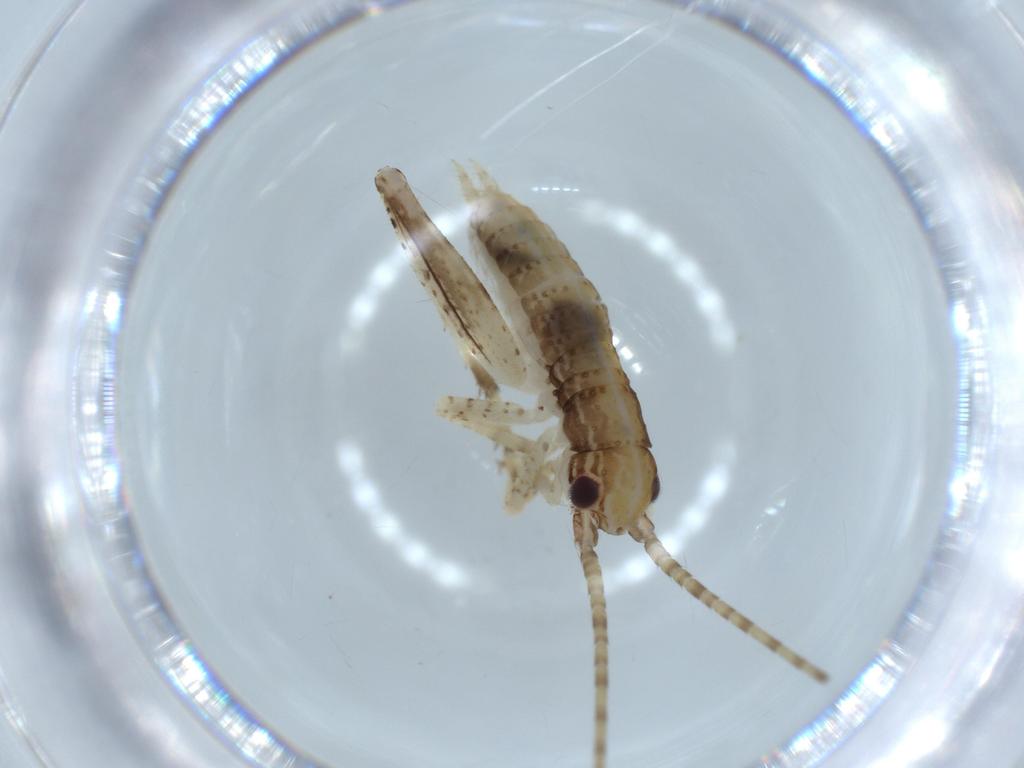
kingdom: Animalia
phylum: Arthropoda
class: Insecta
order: Orthoptera
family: Gryllidae
